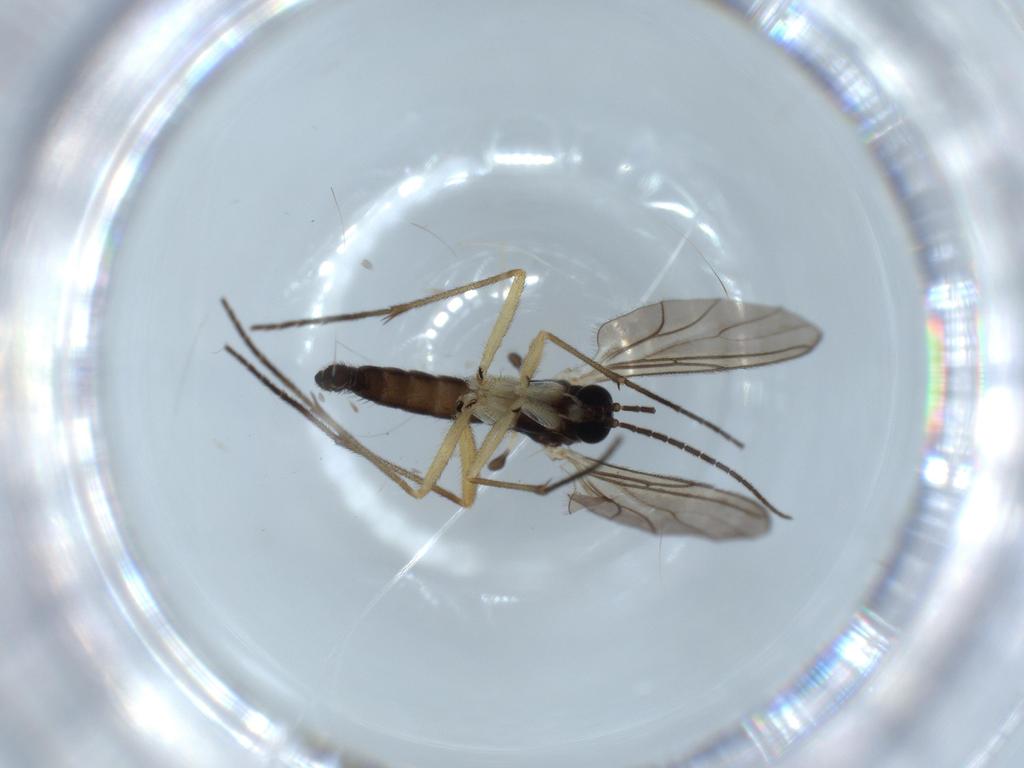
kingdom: Animalia
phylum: Arthropoda
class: Insecta
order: Diptera
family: Sciaridae
